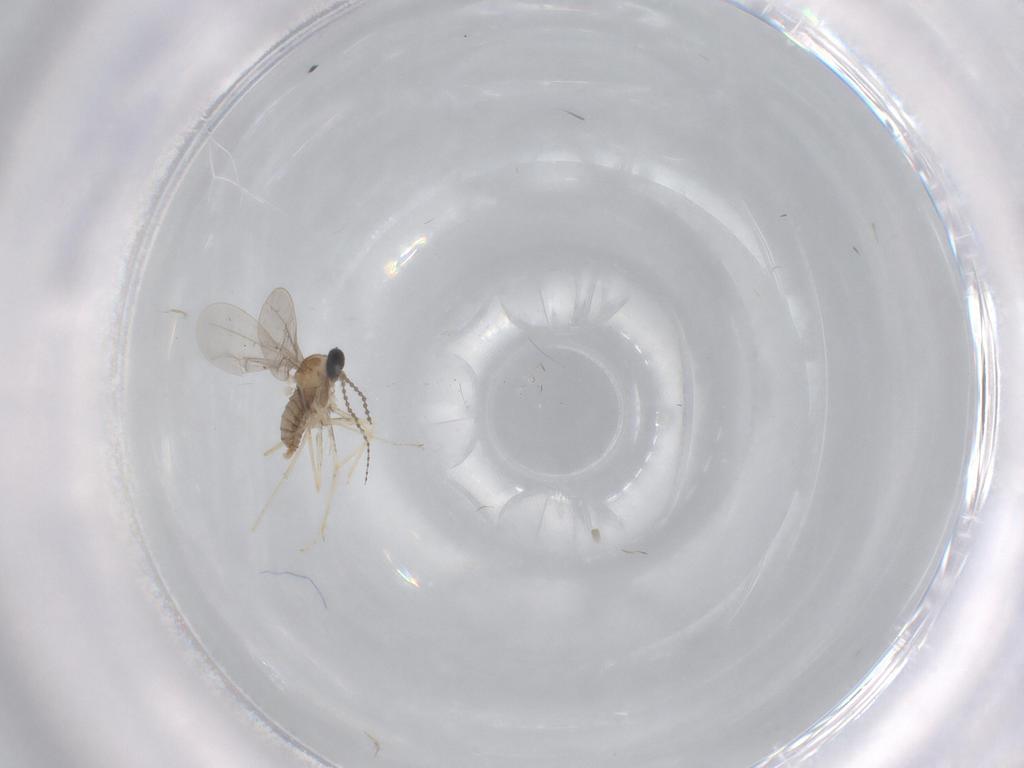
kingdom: Animalia
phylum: Arthropoda
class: Insecta
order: Diptera
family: Cecidomyiidae
